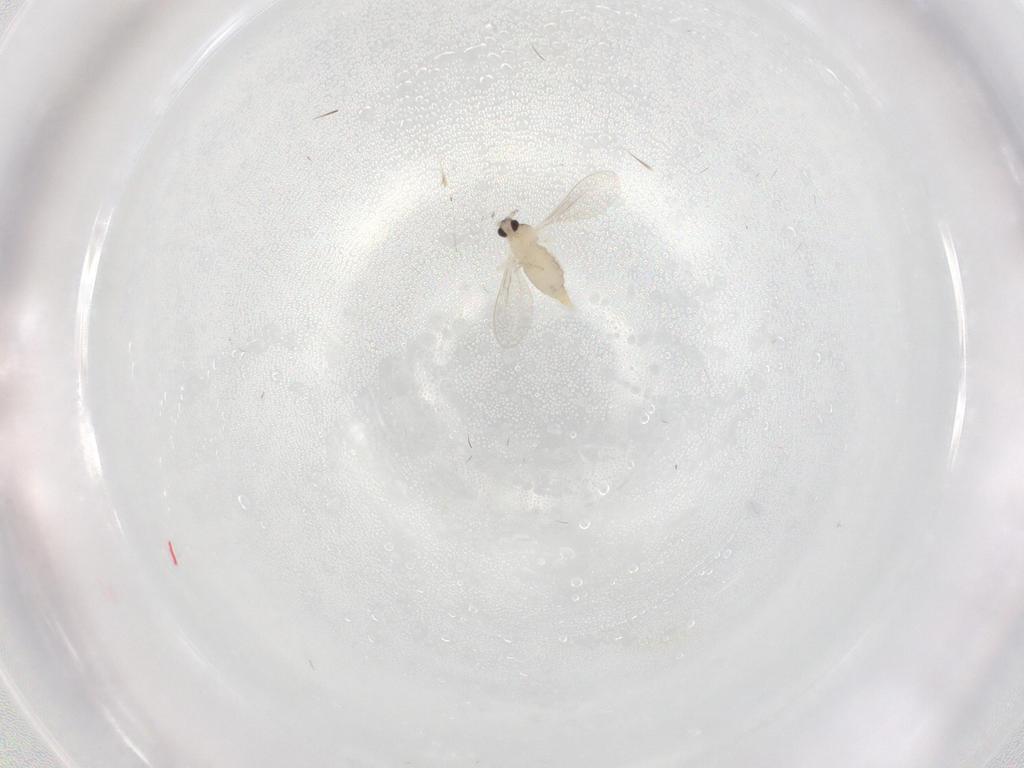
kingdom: Animalia
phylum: Arthropoda
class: Insecta
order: Diptera
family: Cecidomyiidae
